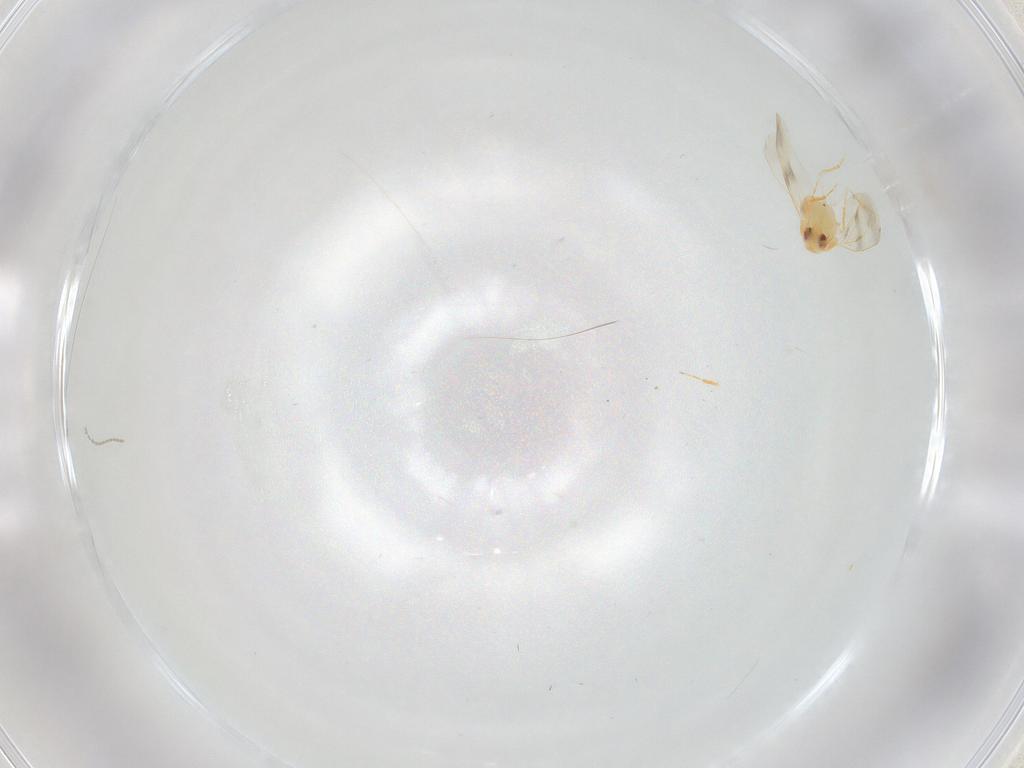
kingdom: Animalia
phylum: Arthropoda
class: Insecta
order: Hemiptera
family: Aleyrodidae
